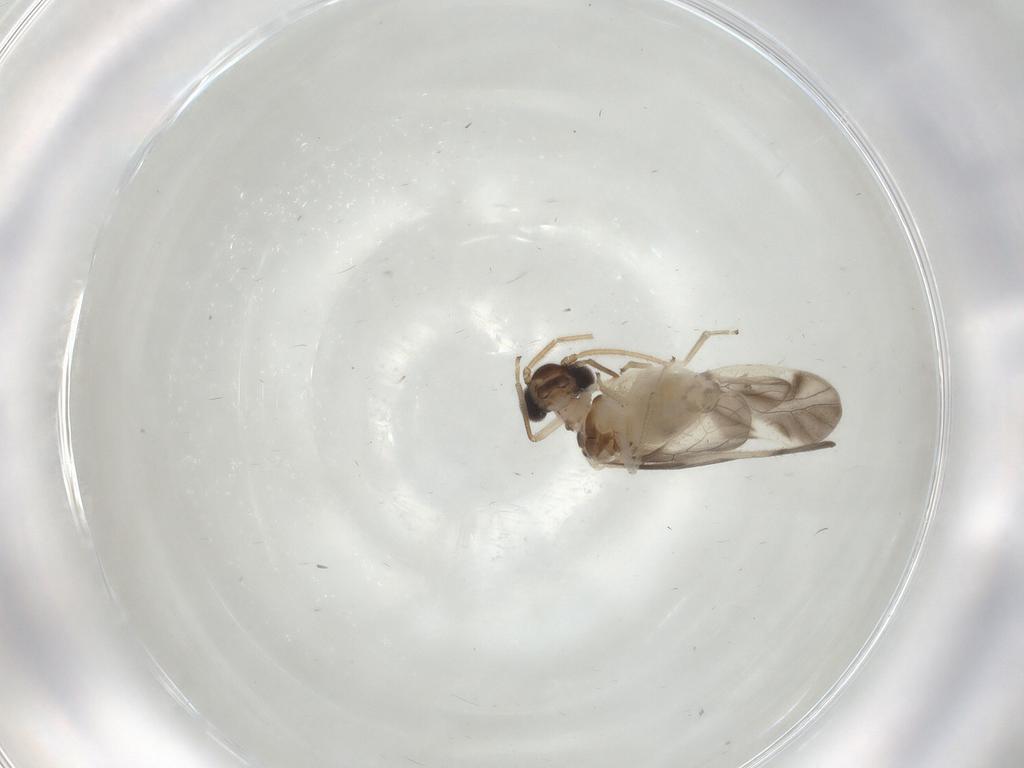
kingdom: Animalia
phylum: Arthropoda
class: Insecta
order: Psocodea
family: Caeciliusidae
